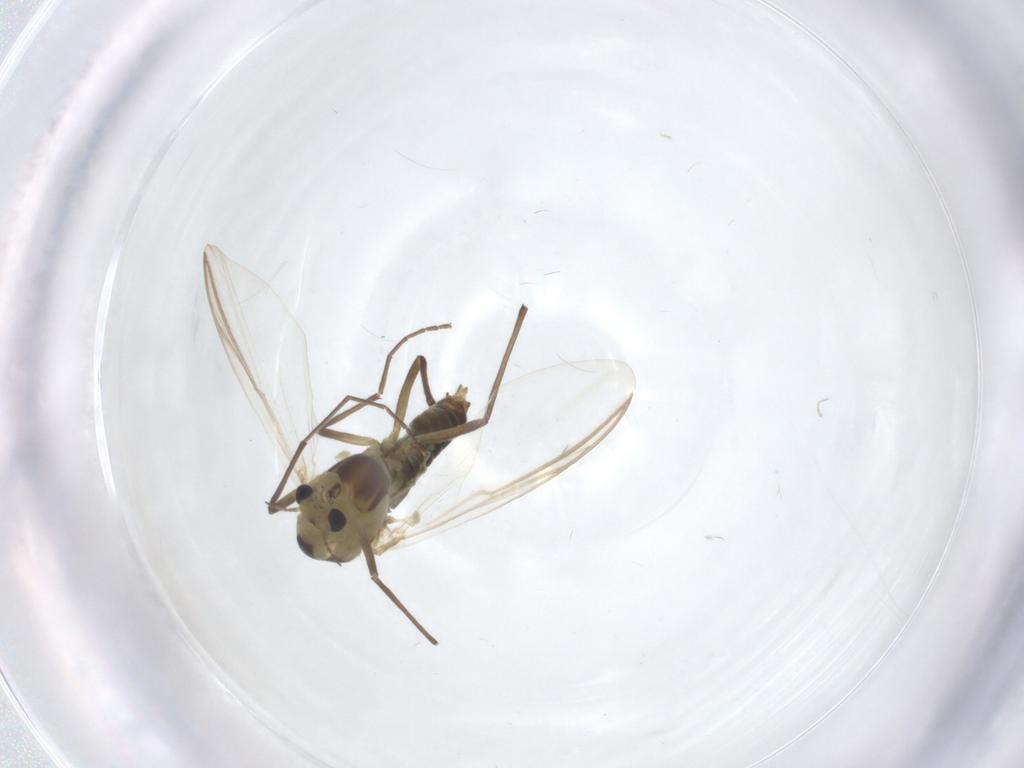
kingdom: Animalia
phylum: Arthropoda
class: Insecta
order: Diptera
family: Chironomidae
